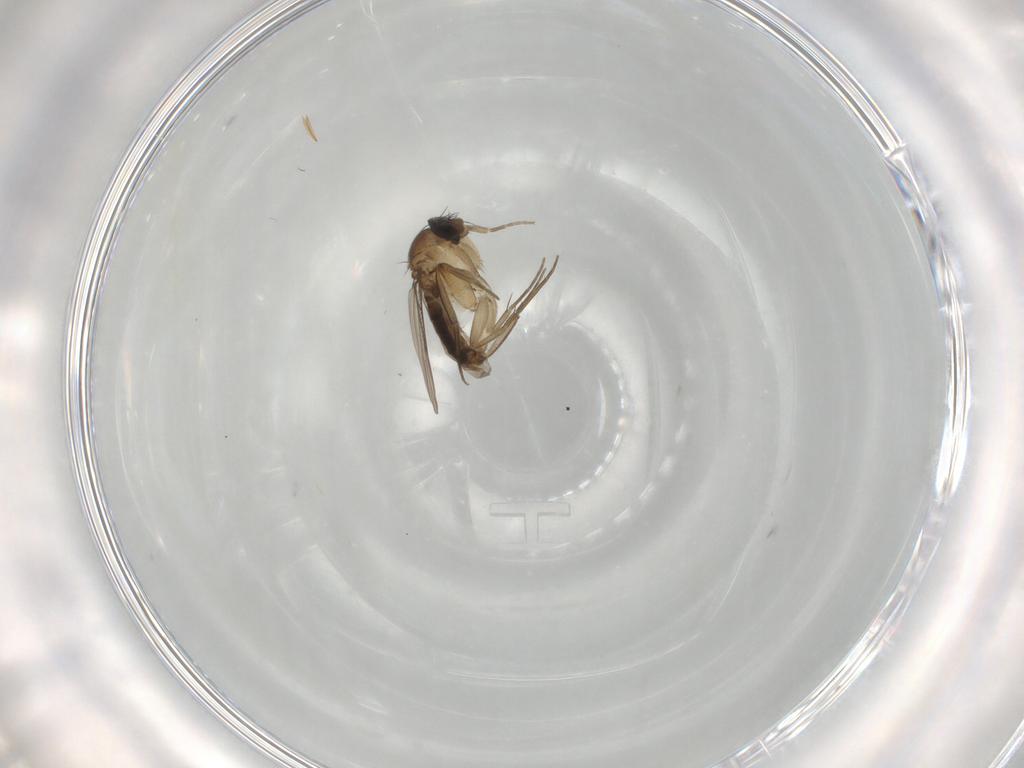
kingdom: Animalia
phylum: Arthropoda
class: Insecta
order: Diptera
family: Phoridae
